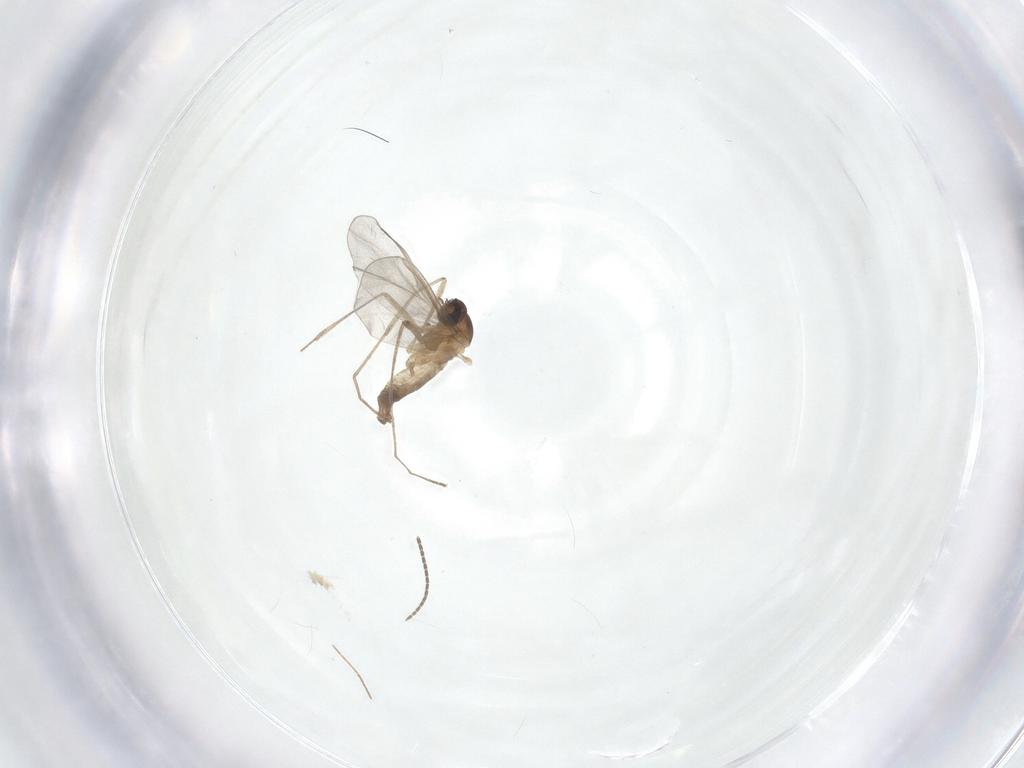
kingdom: Animalia
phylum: Arthropoda
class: Insecta
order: Diptera
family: Cecidomyiidae
